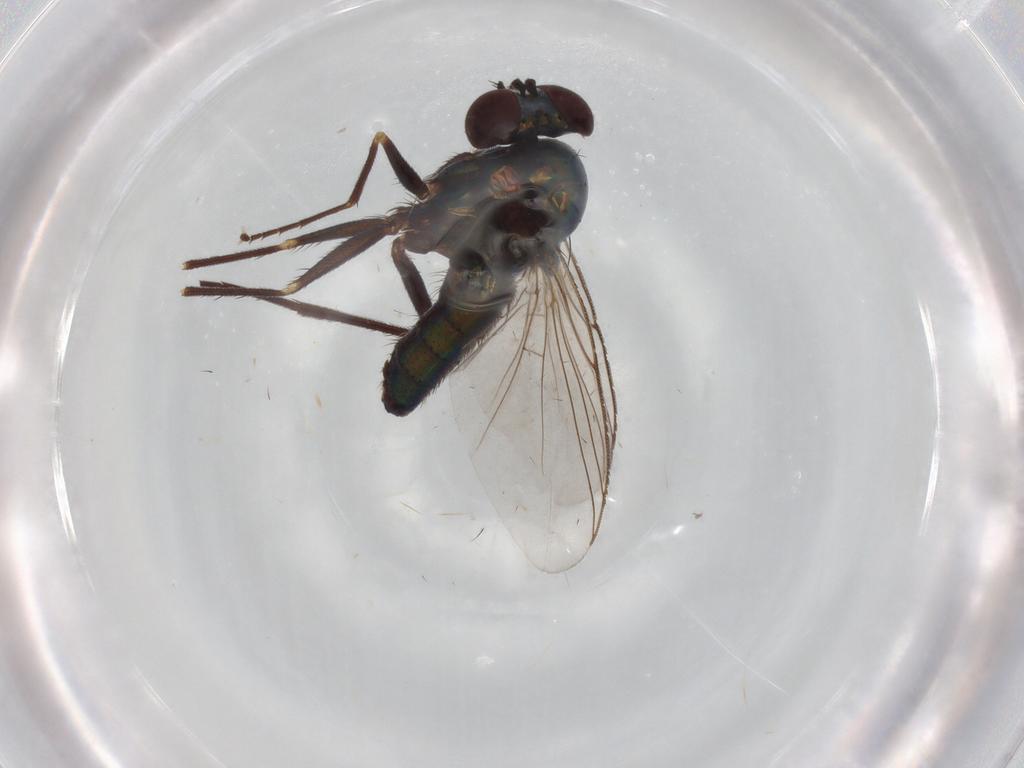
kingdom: Animalia
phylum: Arthropoda
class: Insecta
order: Diptera
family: Dolichopodidae
